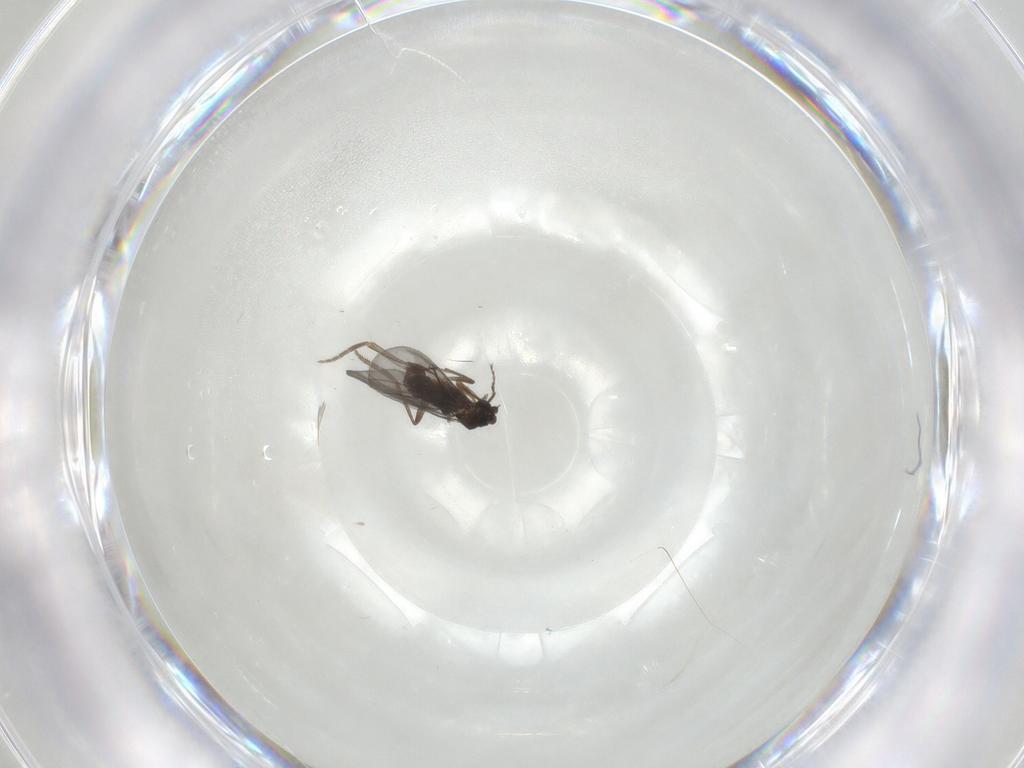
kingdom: Animalia
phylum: Arthropoda
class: Insecta
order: Diptera
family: Phoridae
